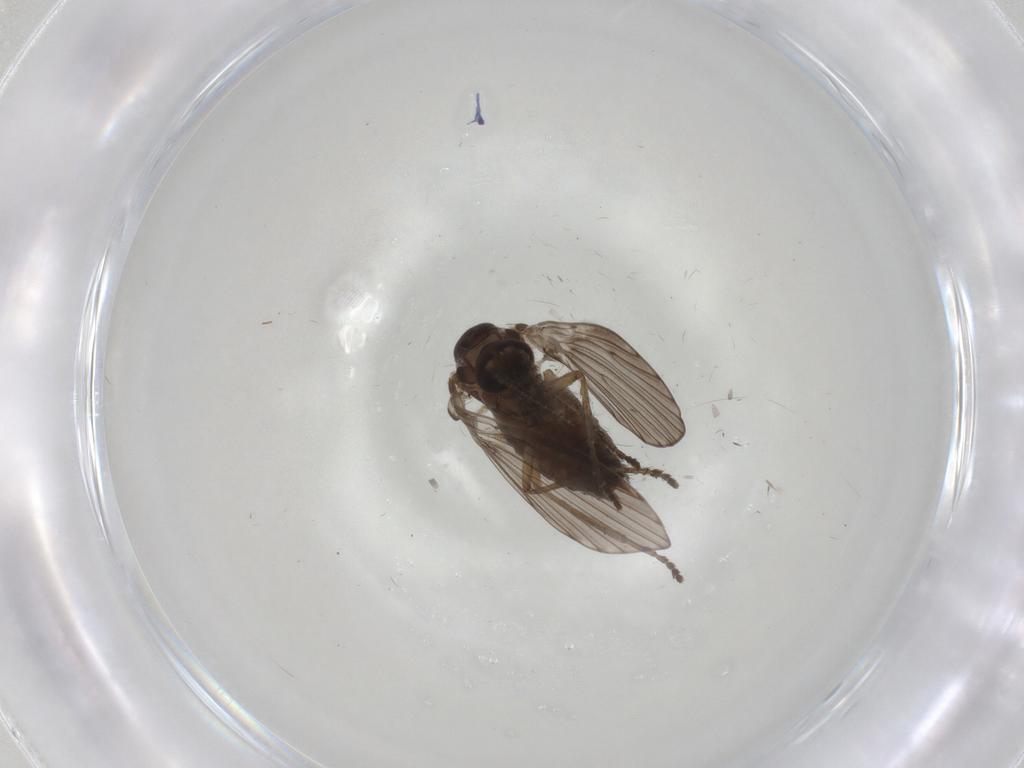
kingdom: Animalia
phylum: Arthropoda
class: Insecta
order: Diptera
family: Psychodidae
